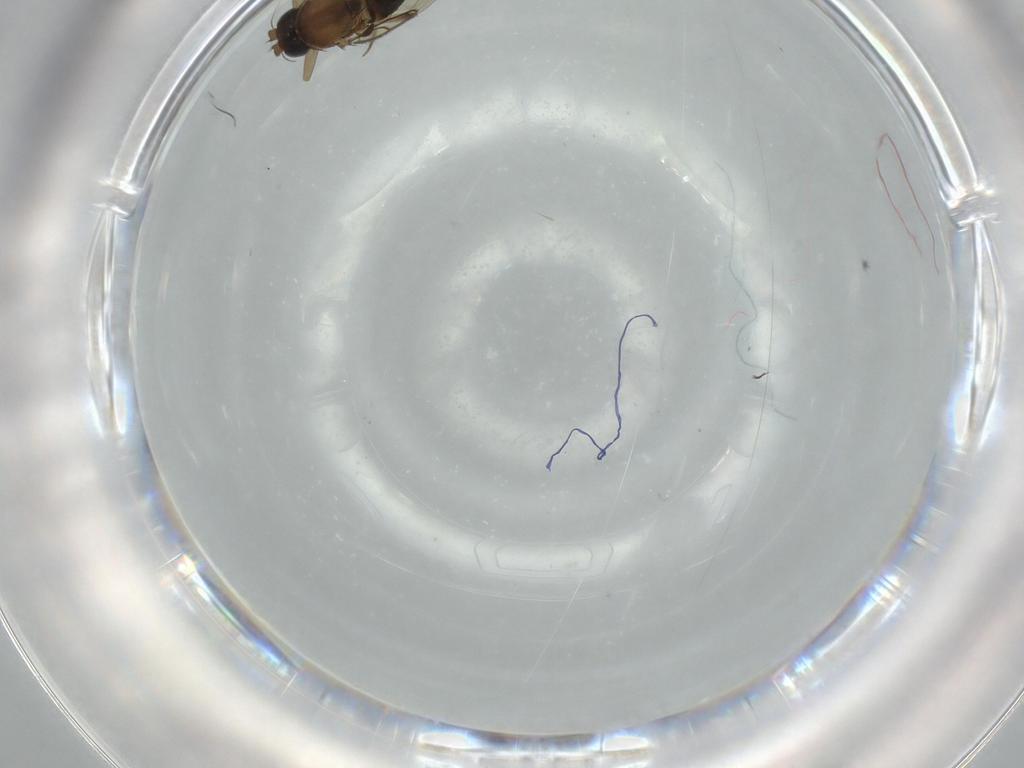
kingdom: Animalia
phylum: Arthropoda
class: Insecta
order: Diptera
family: Phoridae
